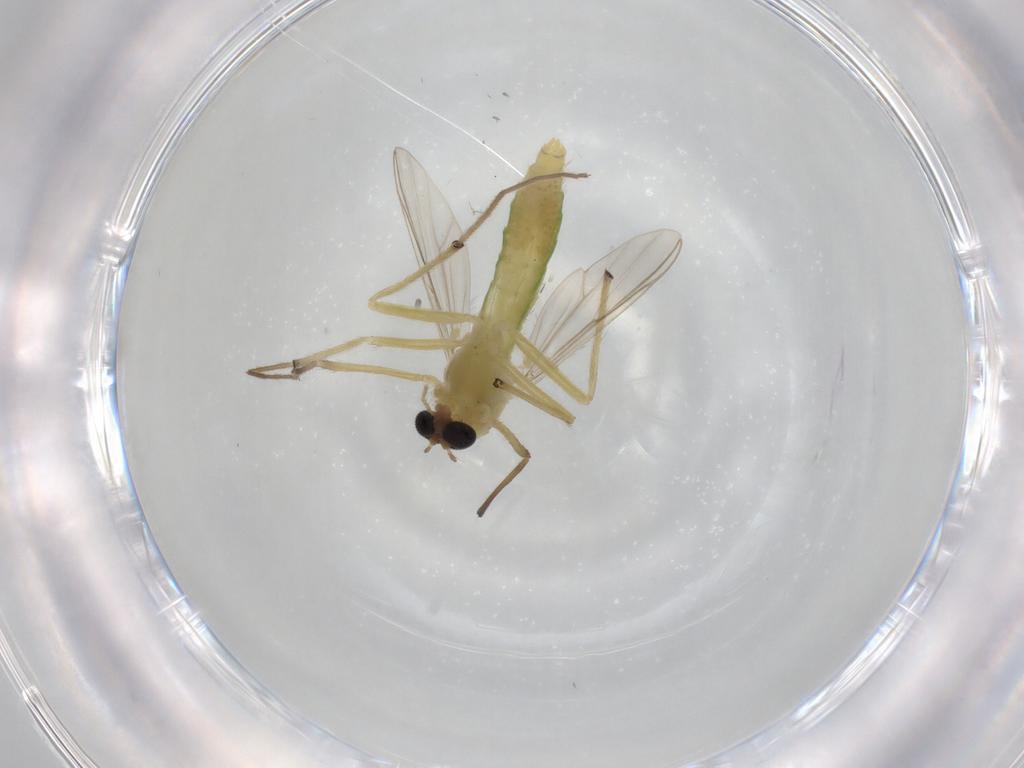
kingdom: Animalia
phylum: Arthropoda
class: Insecta
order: Diptera
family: Chironomidae
